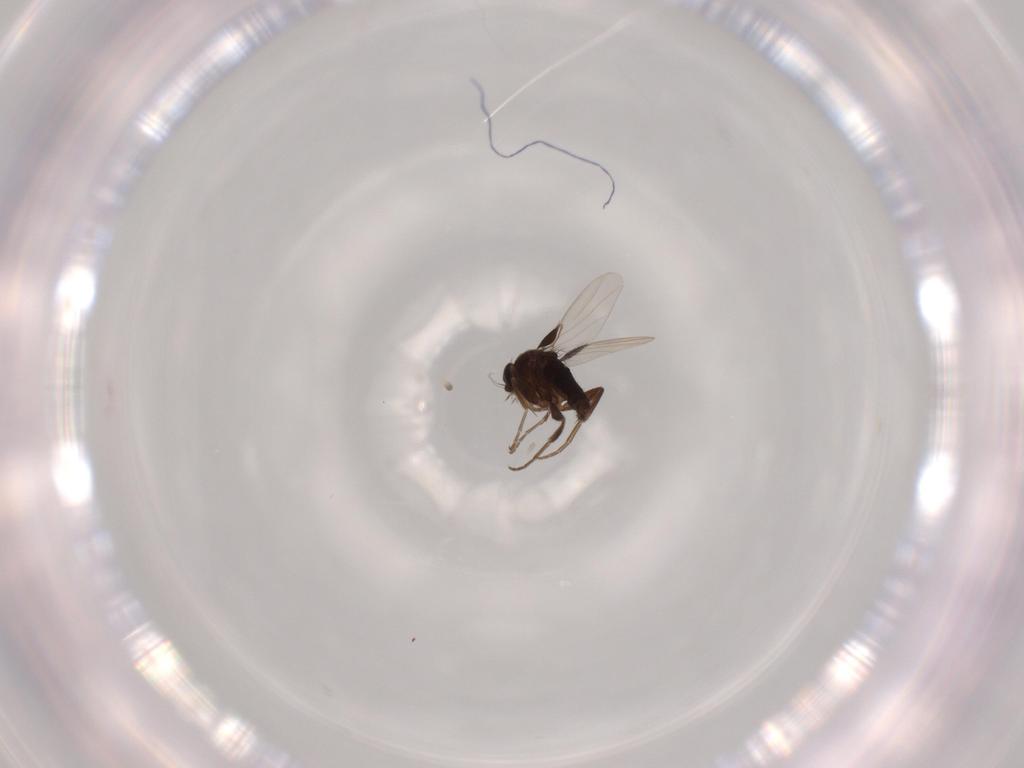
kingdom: Animalia
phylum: Arthropoda
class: Insecta
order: Diptera
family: Phoridae
